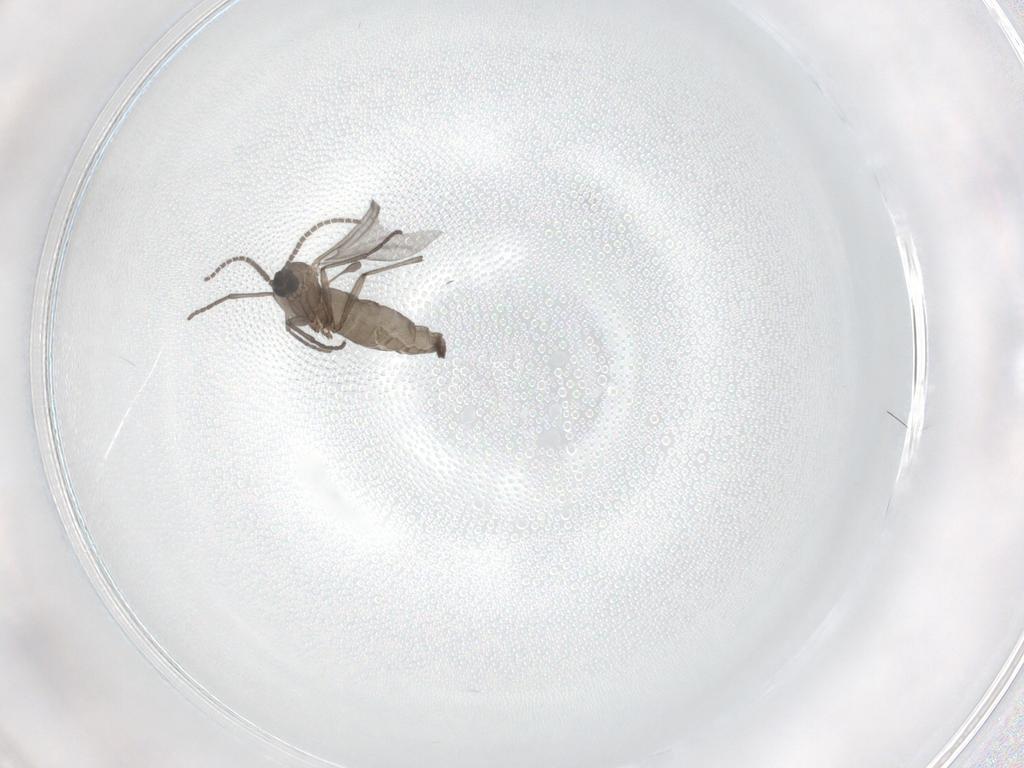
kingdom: Animalia
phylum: Arthropoda
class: Insecta
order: Diptera
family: Sciaridae
